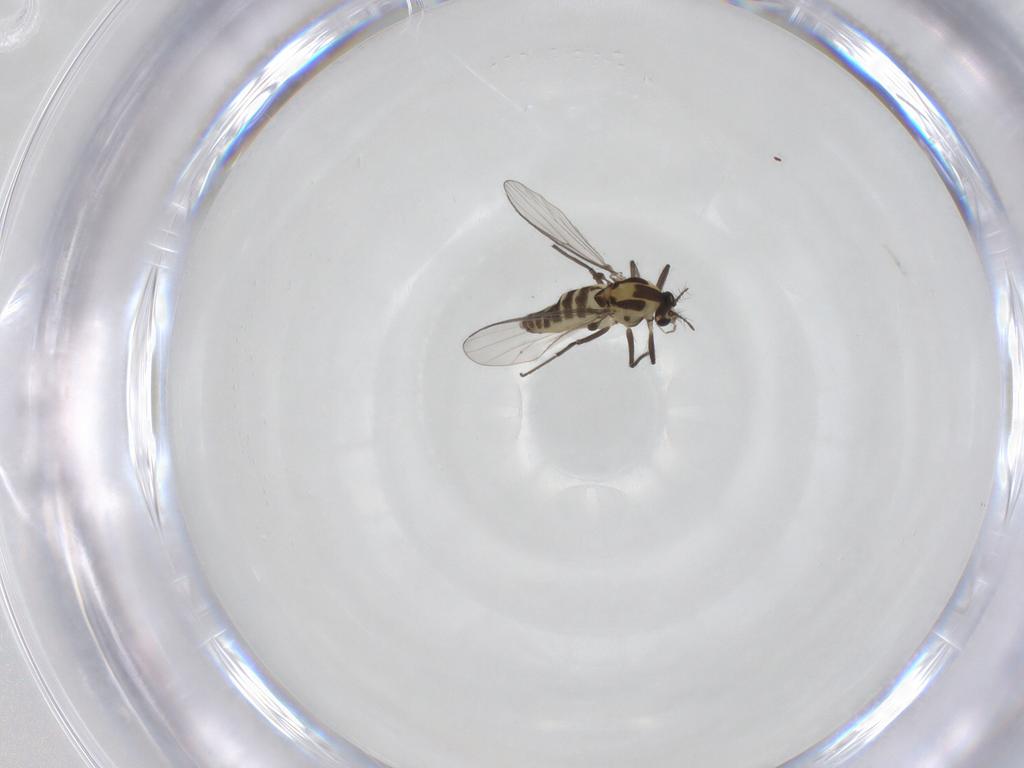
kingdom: Animalia
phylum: Arthropoda
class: Insecta
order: Diptera
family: Chironomidae
